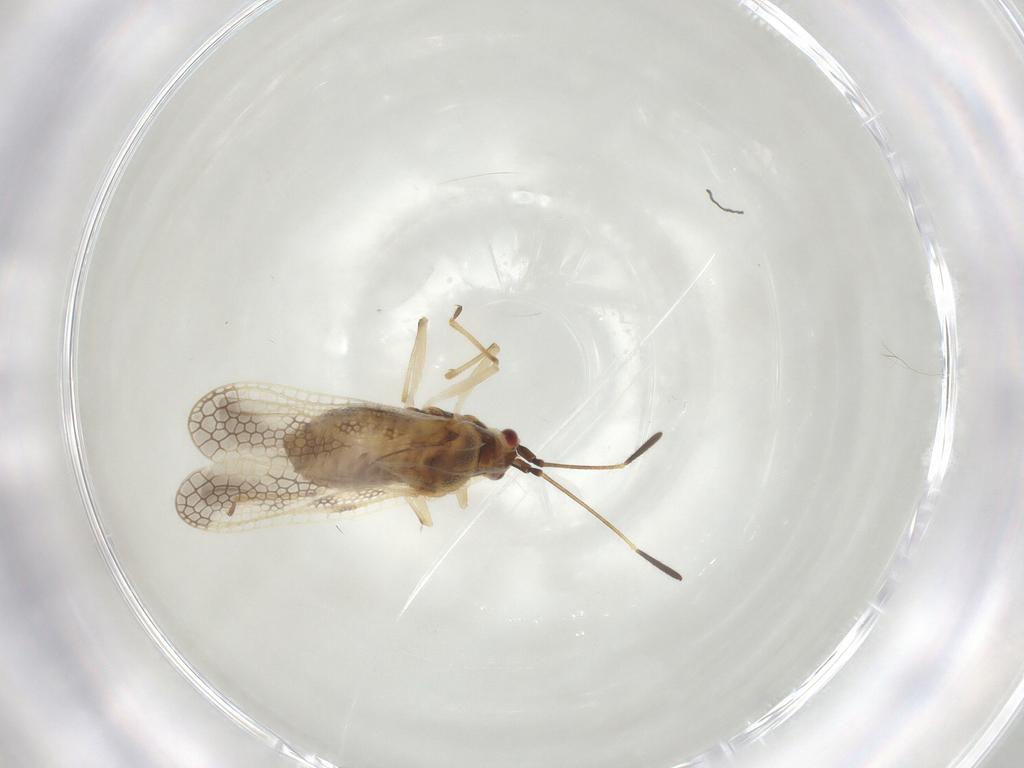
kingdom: Animalia
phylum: Arthropoda
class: Insecta
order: Hemiptera
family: Tingidae
